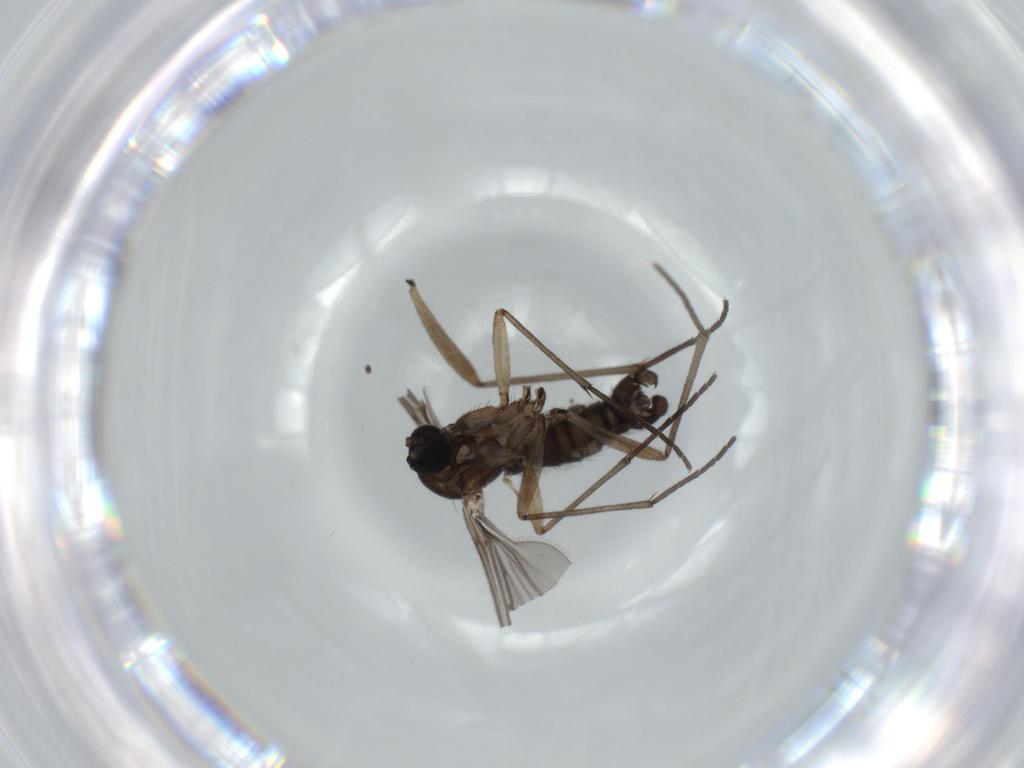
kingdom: Animalia
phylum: Arthropoda
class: Insecta
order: Diptera
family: Sciaridae
